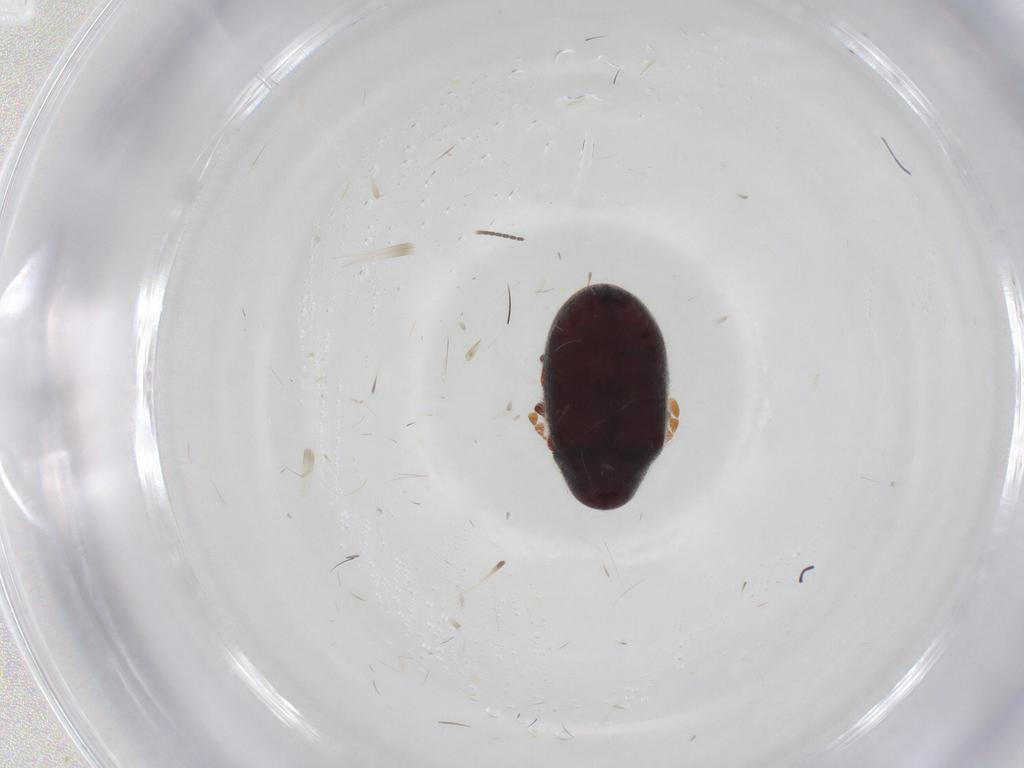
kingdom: Animalia
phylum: Arthropoda
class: Insecta
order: Coleoptera
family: Ptinidae
